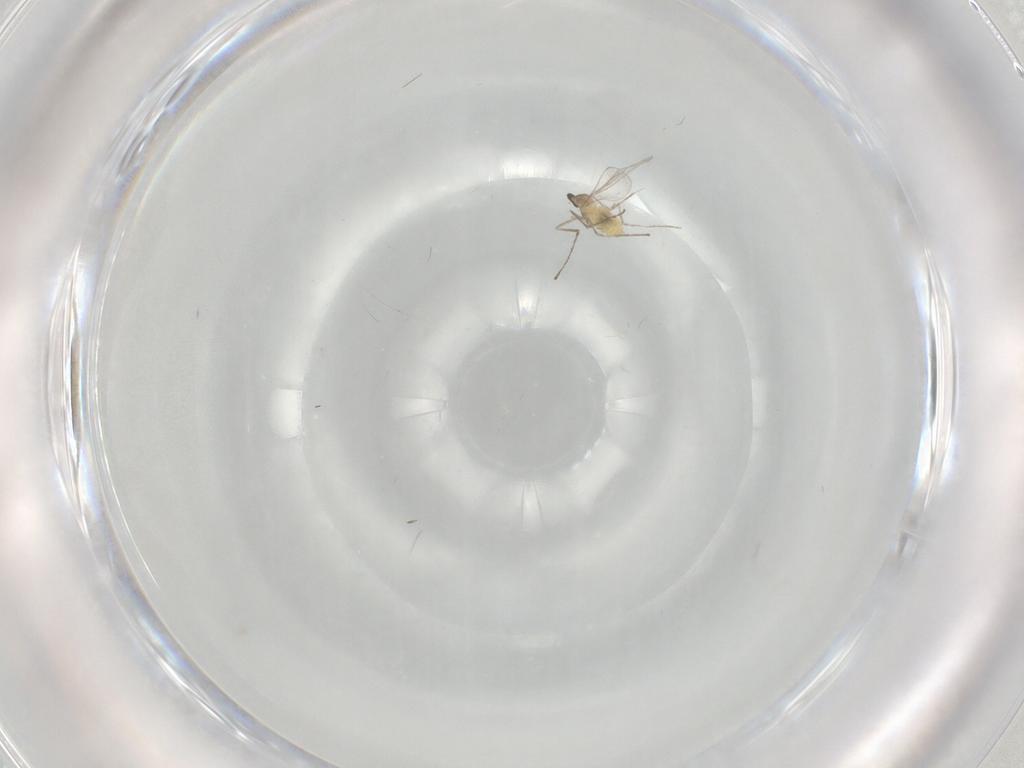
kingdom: Animalia
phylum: Arthropoda
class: Insecta
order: Diptera
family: Cecidomyiidae
